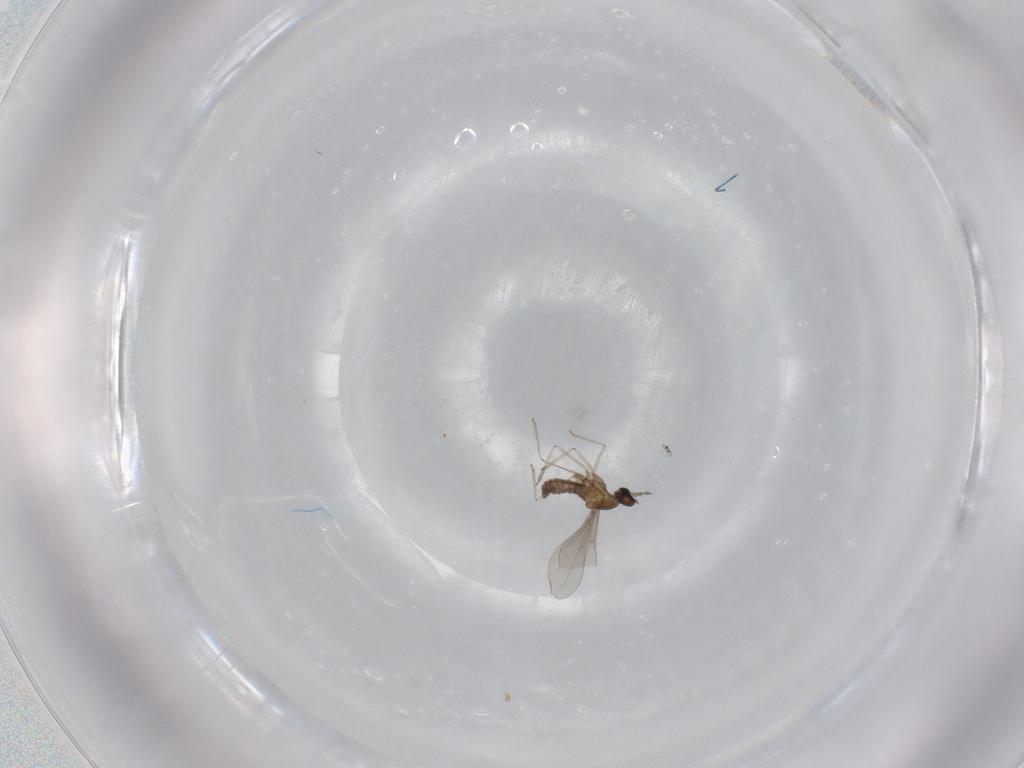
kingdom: Animalia
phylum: Arthropoda
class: Insecta
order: Diptera
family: Cecidomyiidae
